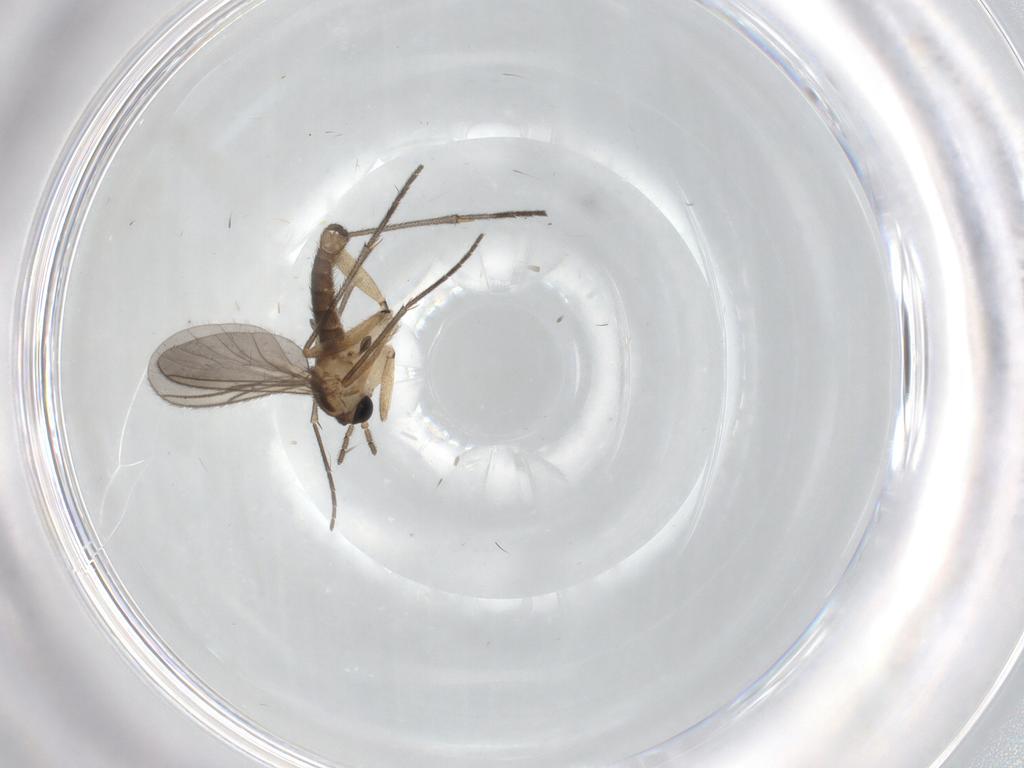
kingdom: Animalia
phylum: Arthropoda
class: Insecta
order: Diptera
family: Sciaridae
